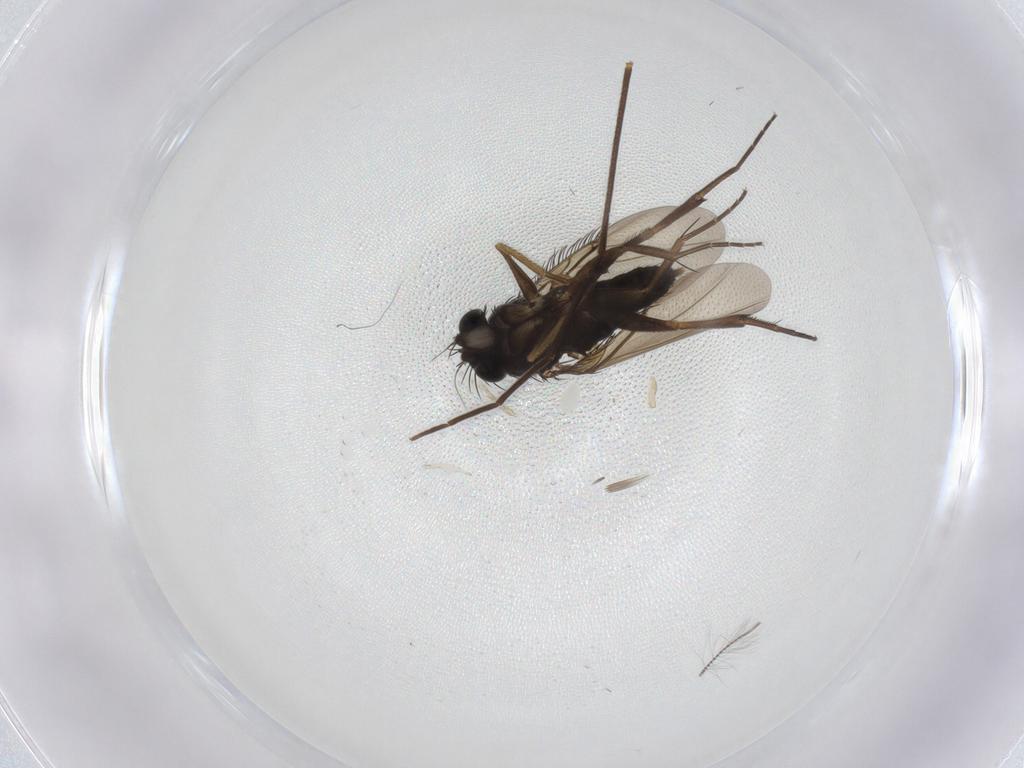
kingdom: Animalia
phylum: Arthropoda
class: Insecta
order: Diptera
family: Phoridae
